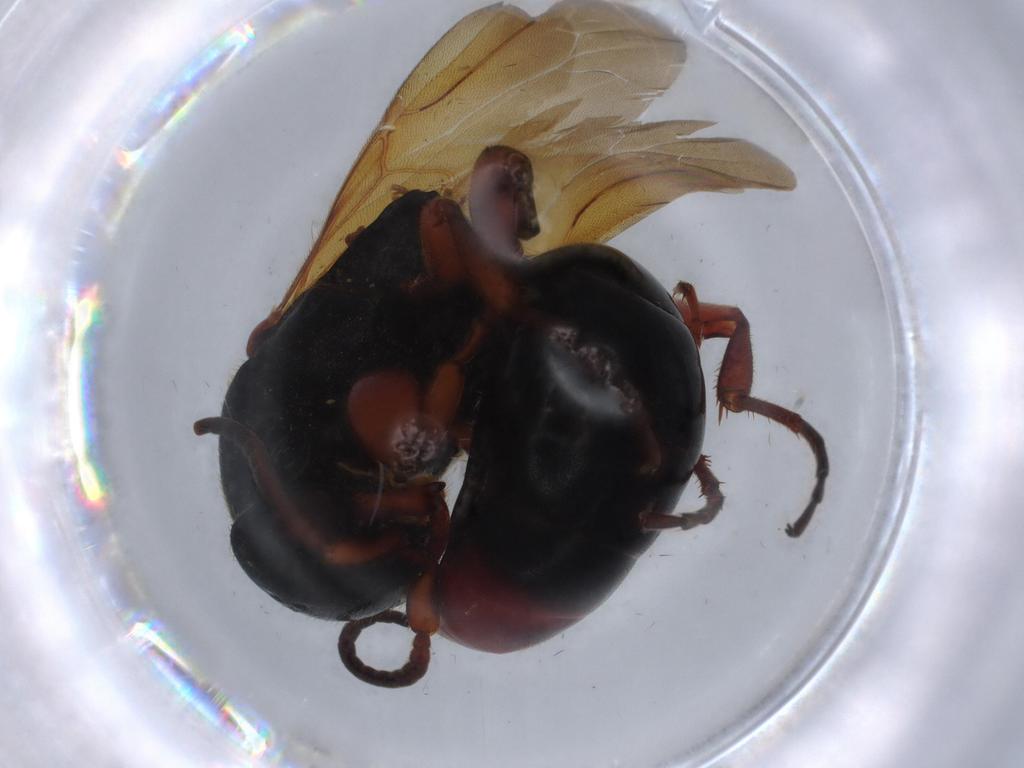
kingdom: Animalia
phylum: Arthropoda
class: Insecta
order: Hymenoptera
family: Bethylidae
